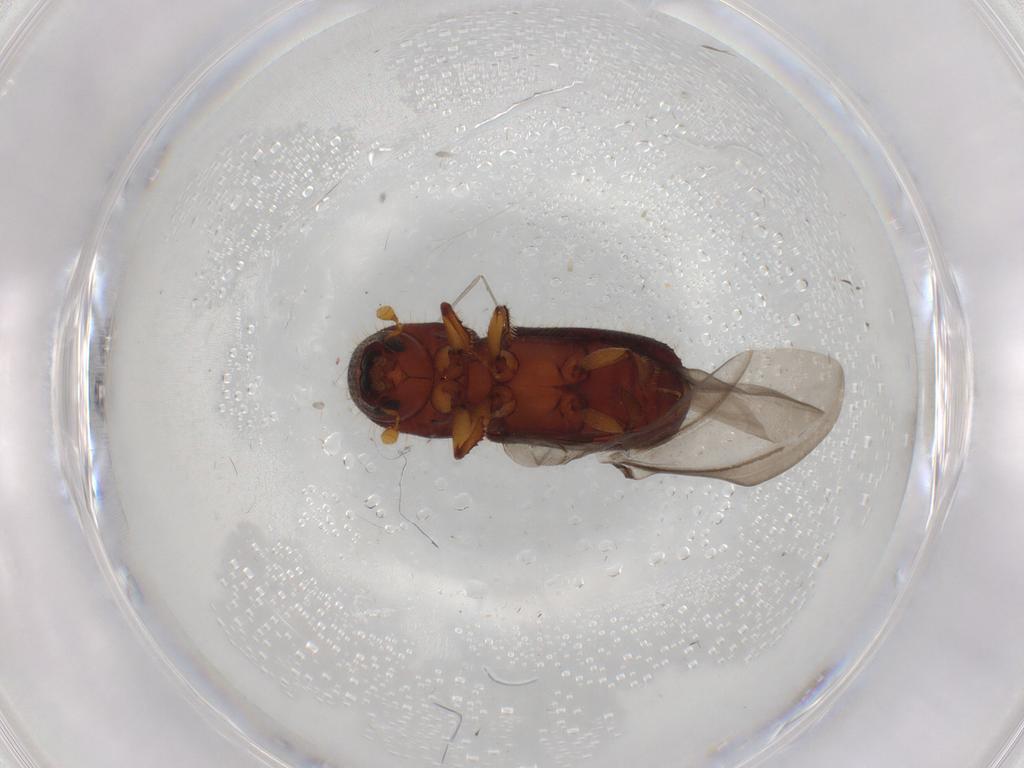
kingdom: Animalia
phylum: Arthropoda
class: Insecta
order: Coleoptera
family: Curculionidae
